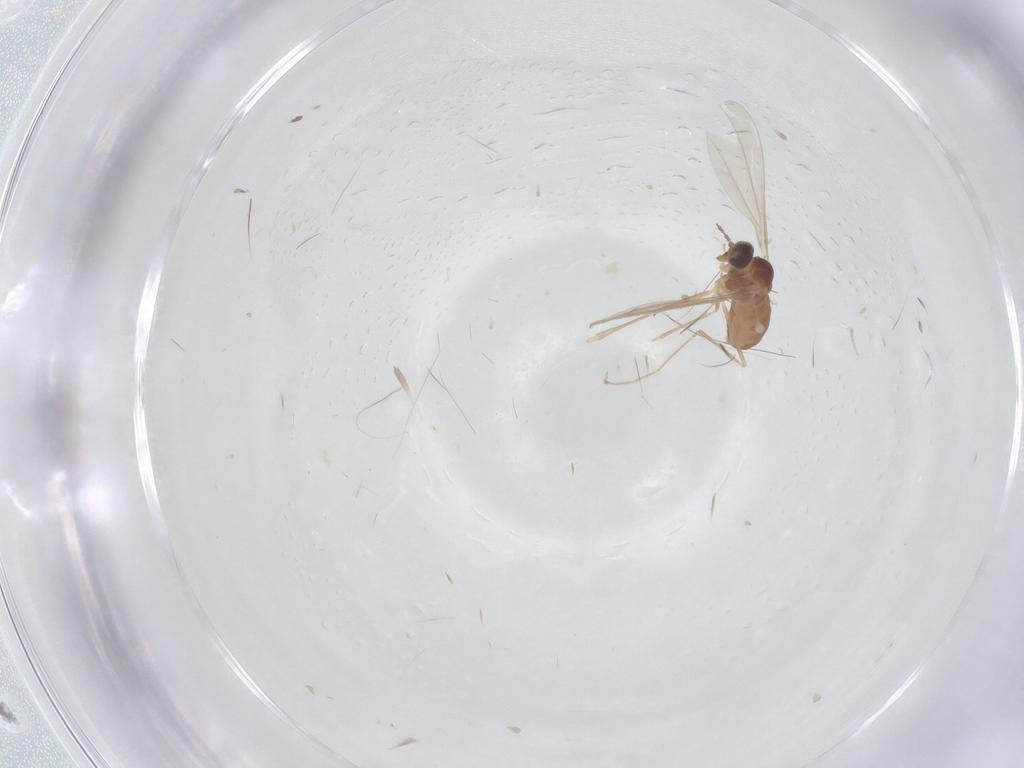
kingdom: Animalia
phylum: Arthropoda
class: Insecta
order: Diptera
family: Cecidomyiidae
